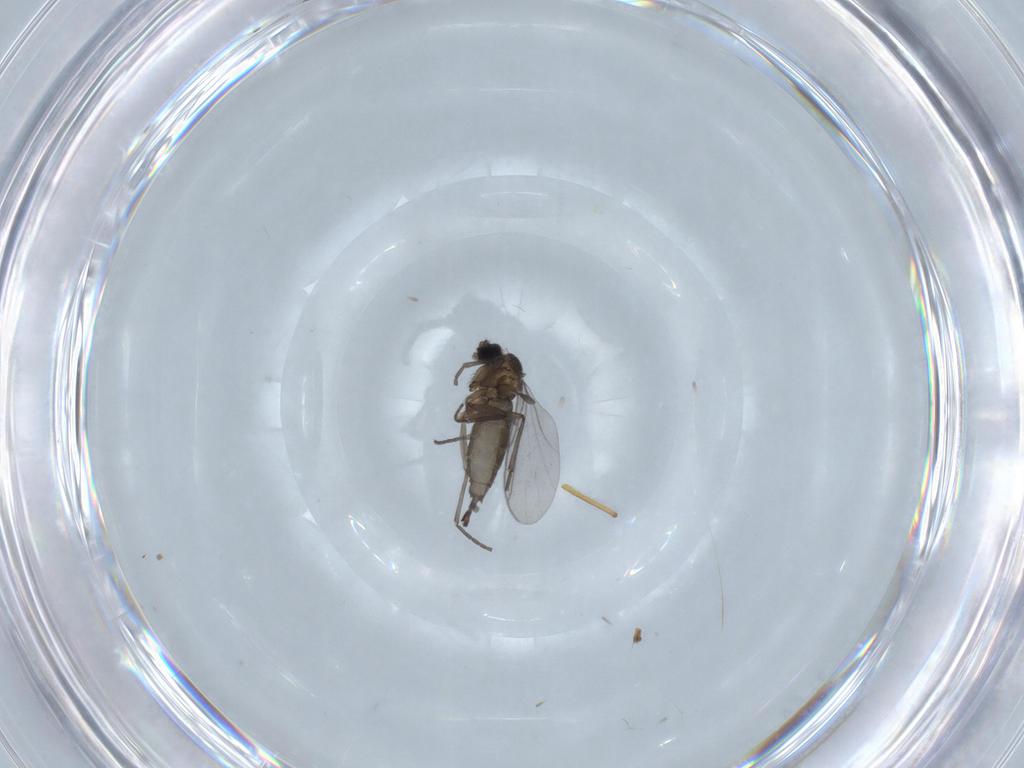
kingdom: Animalia
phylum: Arthropoda
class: Insecta
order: Diptera
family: Ceratopogonidae
